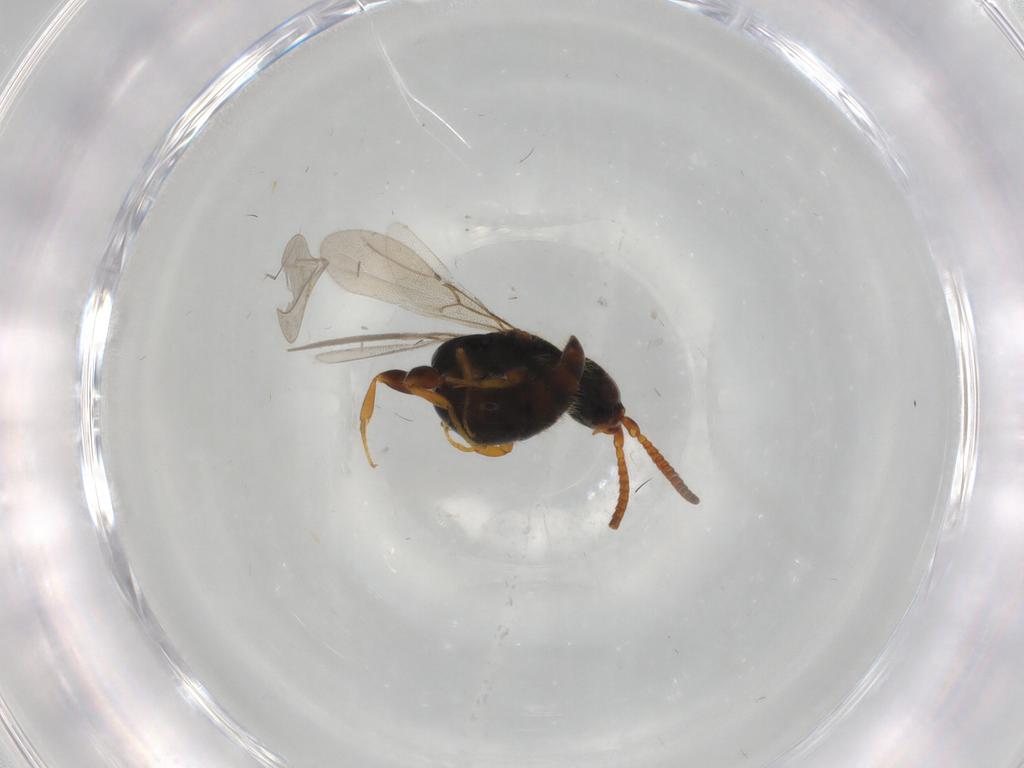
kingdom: Animalia
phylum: Arthropoda
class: Insecta
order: Hymenoptera
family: Bethylidae
